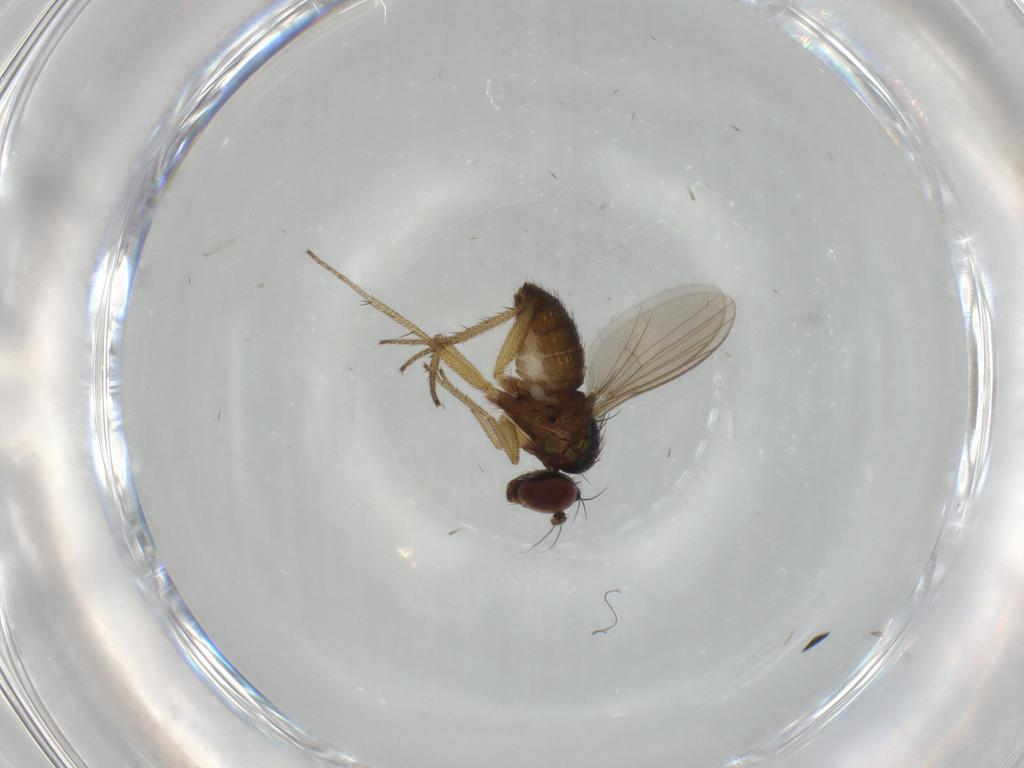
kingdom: Animalia
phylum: Arthropoda
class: Insecta
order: Diptera
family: Dolichopodidae
